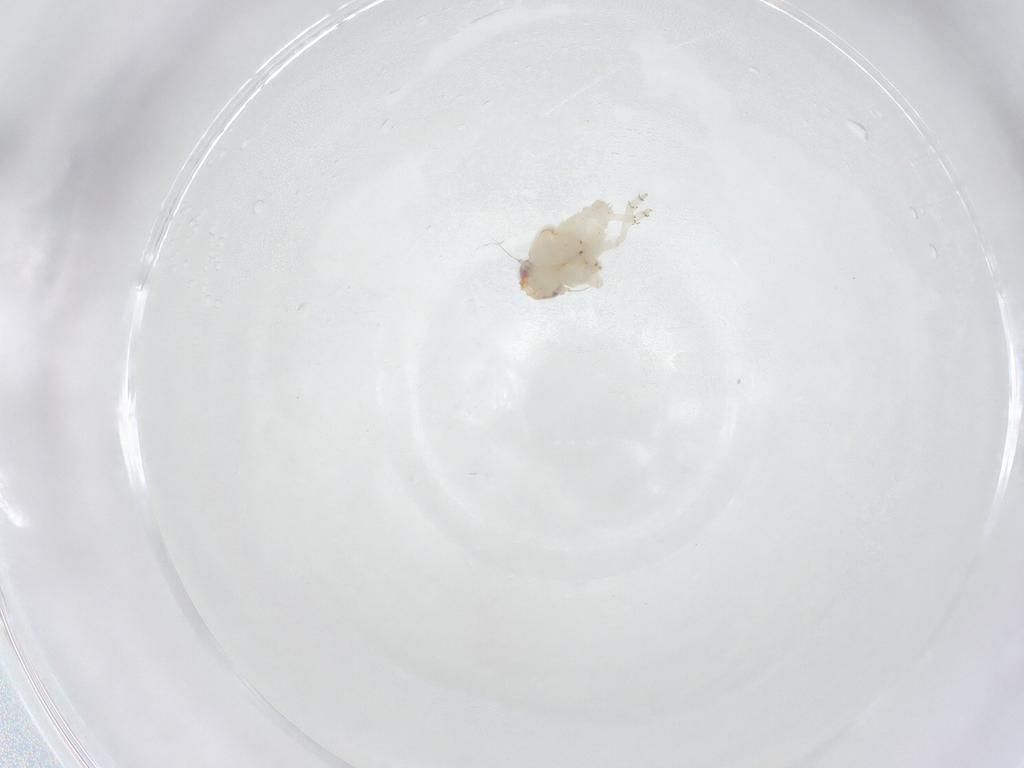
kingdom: Animalia
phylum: Arthropoda
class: Insecta
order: Hemiptera
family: Nogodinidae
